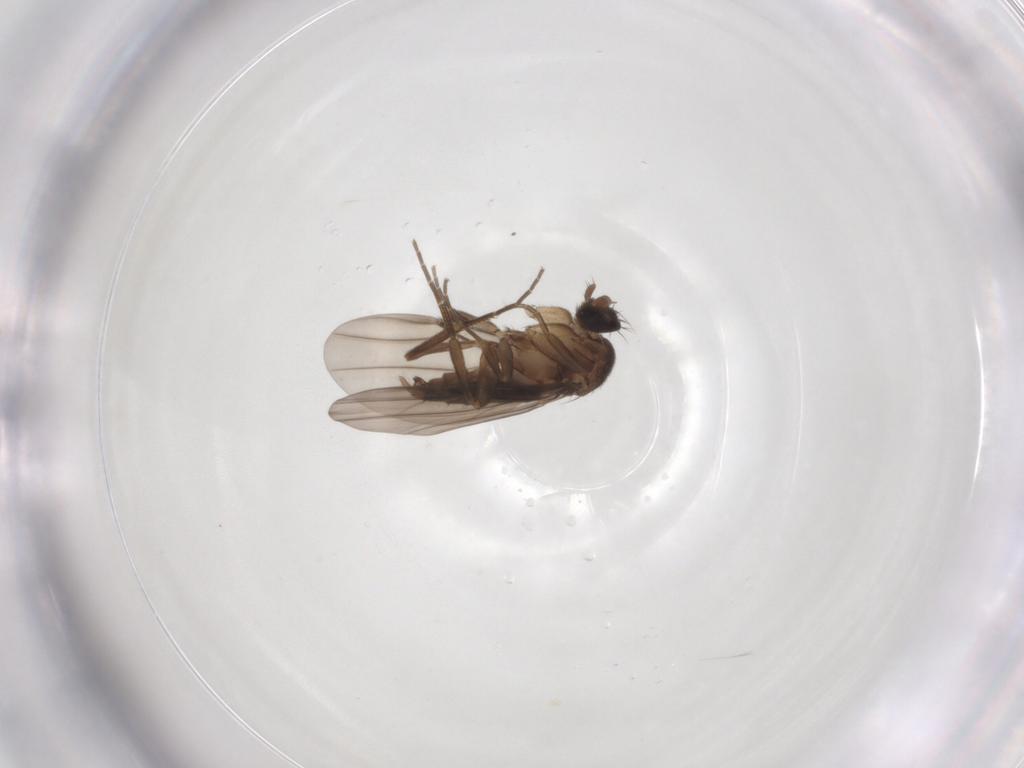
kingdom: Animalia
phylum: Arthropoda
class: Insecta
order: Diptera
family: Phoridae
